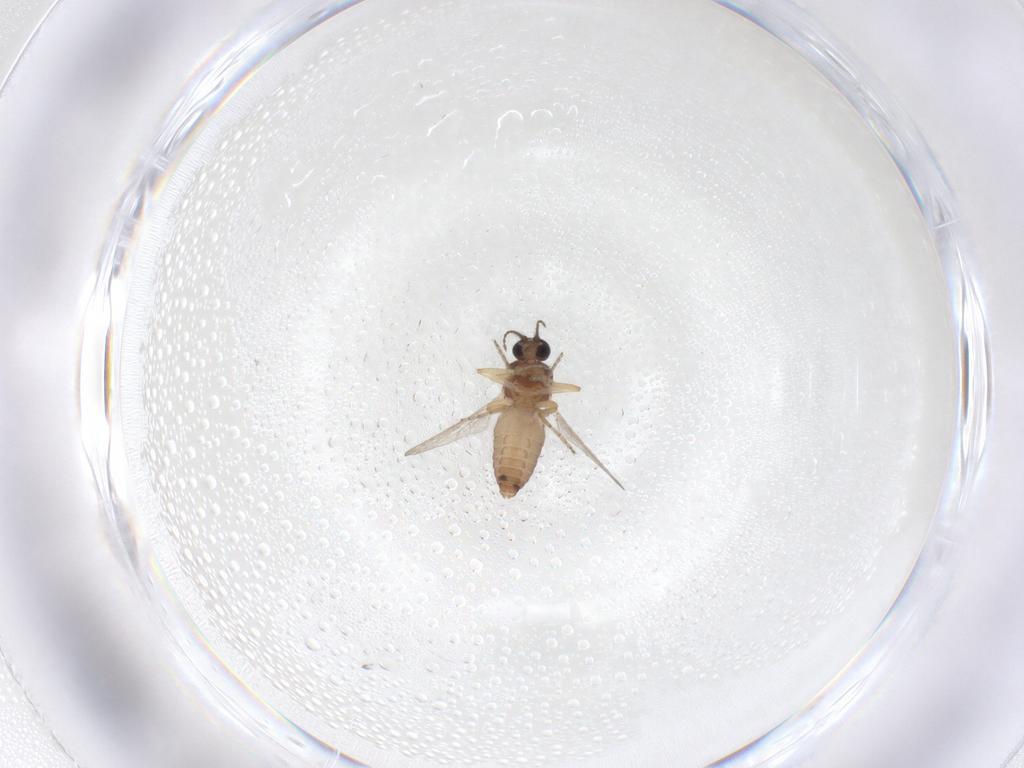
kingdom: Animalia
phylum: Arthropoda
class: Insecta
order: Diptera
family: Ceratopogonidae
